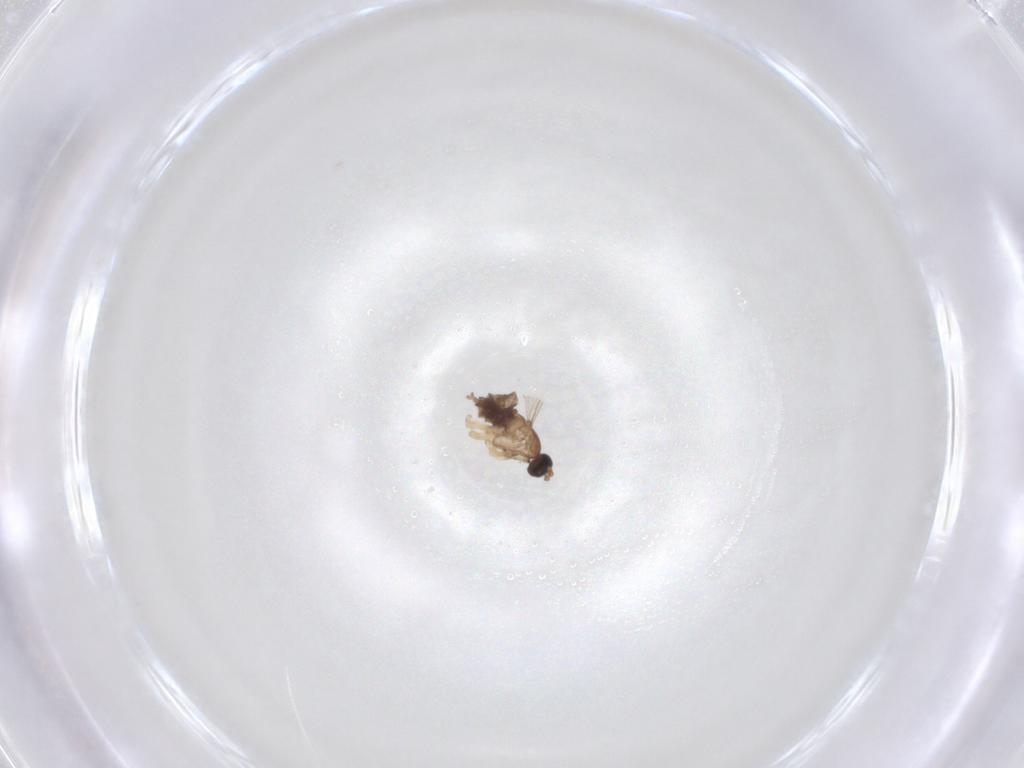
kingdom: Animalia
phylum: Arthropoda
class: Insecta
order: Diptera
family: Sciaridae
